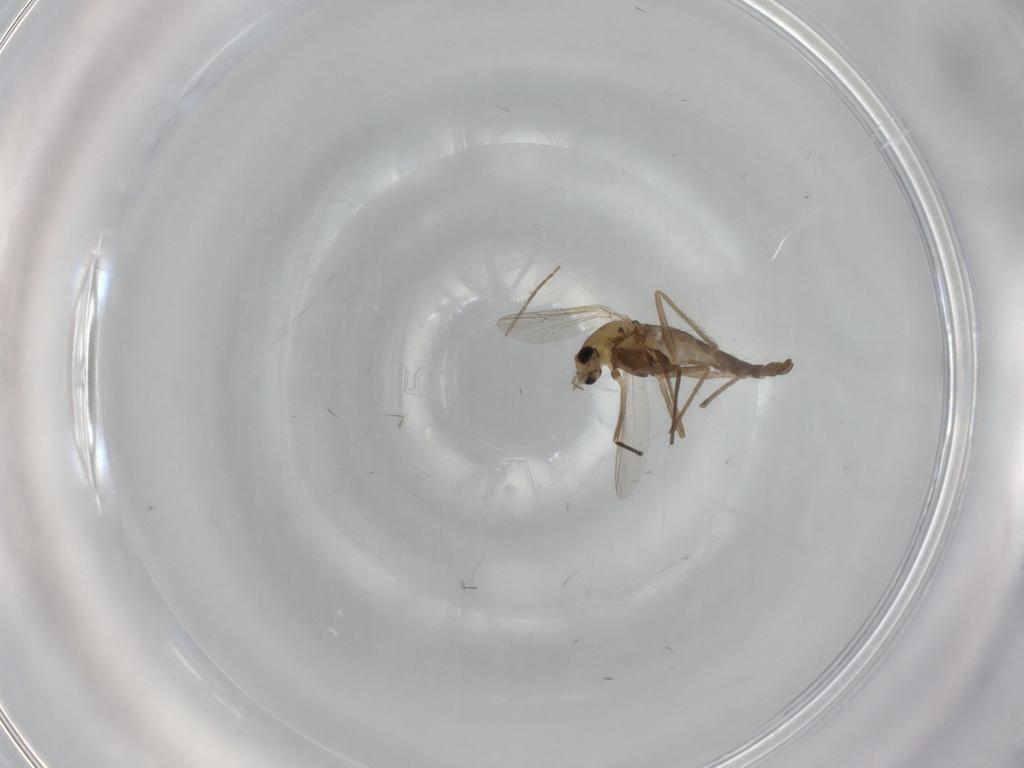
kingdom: Animalia
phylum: Arthropoda
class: Insecta
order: Diptera
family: Chironomidae
